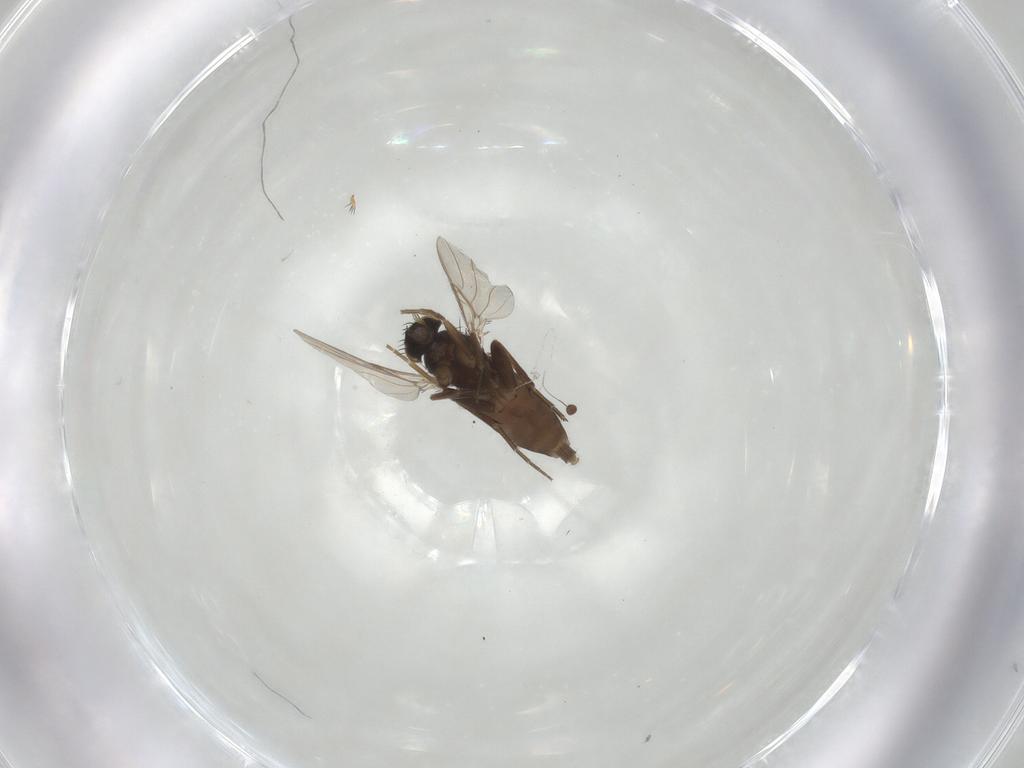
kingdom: Animalia
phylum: Arthropoda
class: Insecta
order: Diptera
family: Phoridae
